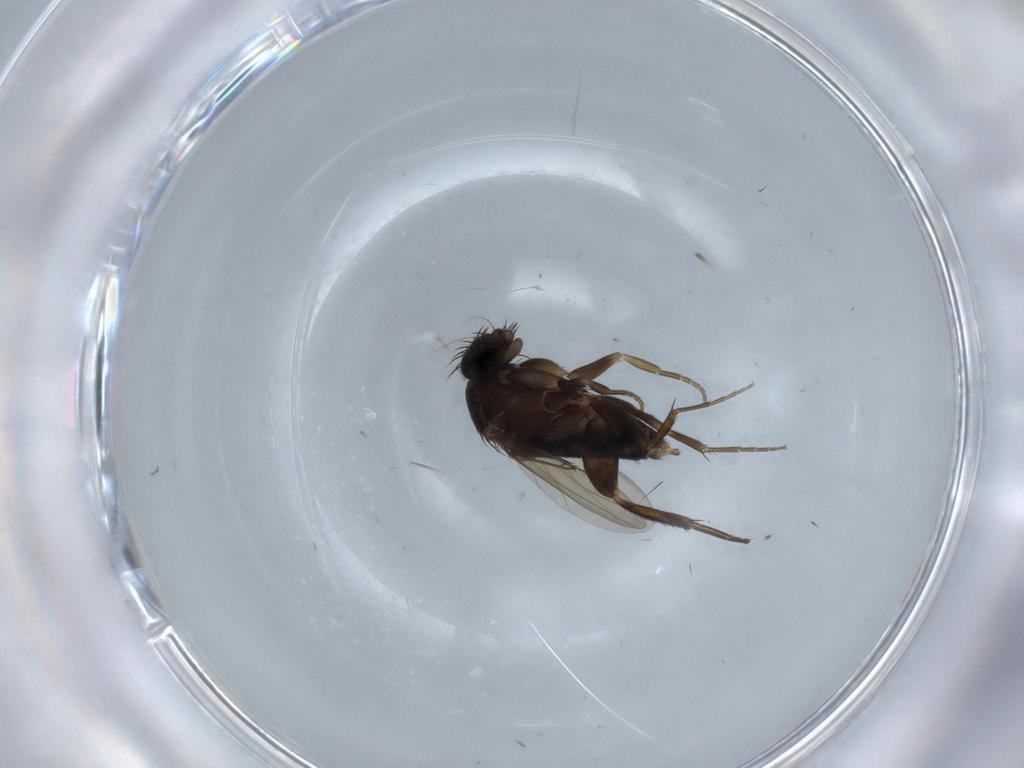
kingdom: Animalia
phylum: Arthropoda
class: Insecta
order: Diptera
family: Phoridae
